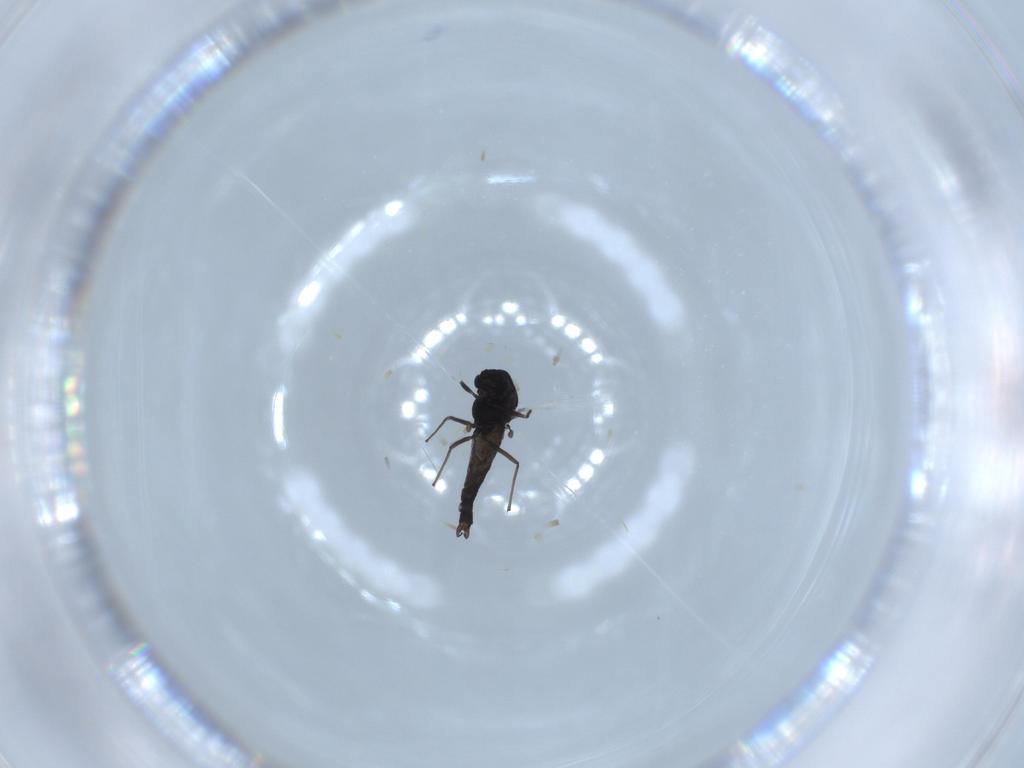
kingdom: Animalia
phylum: Arthropoda
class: Insecta
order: Diptera
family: Chironomidae
